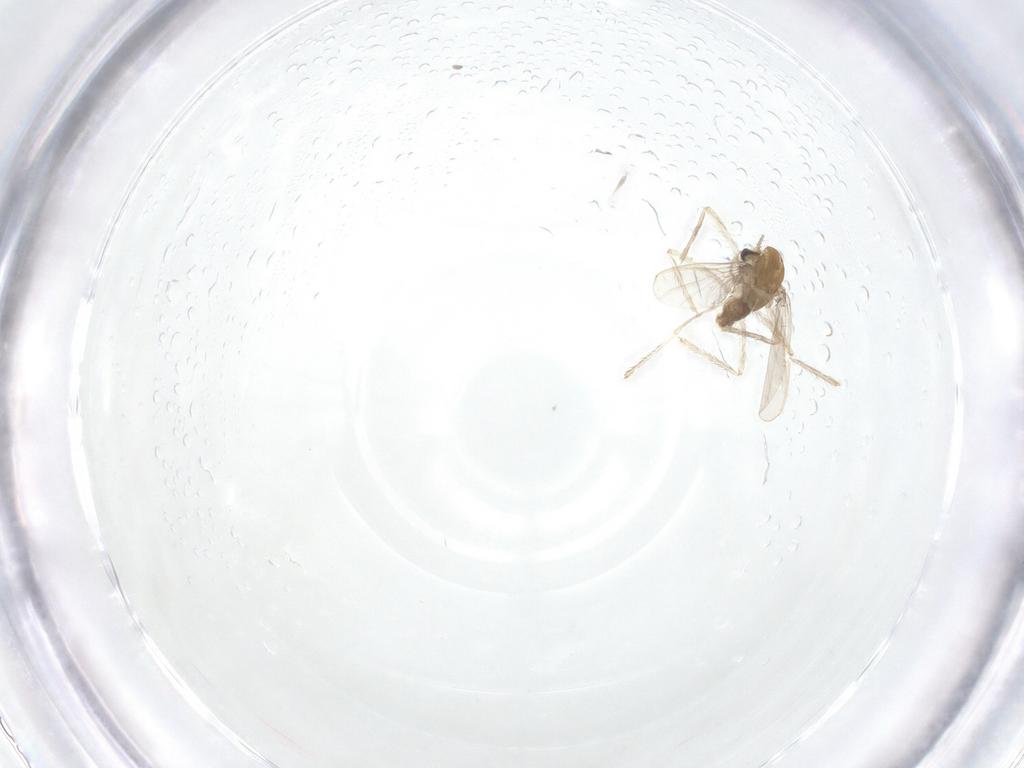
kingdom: Animalia
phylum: Arthropoda
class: Insecta
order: Diptera
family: Chironomidae
